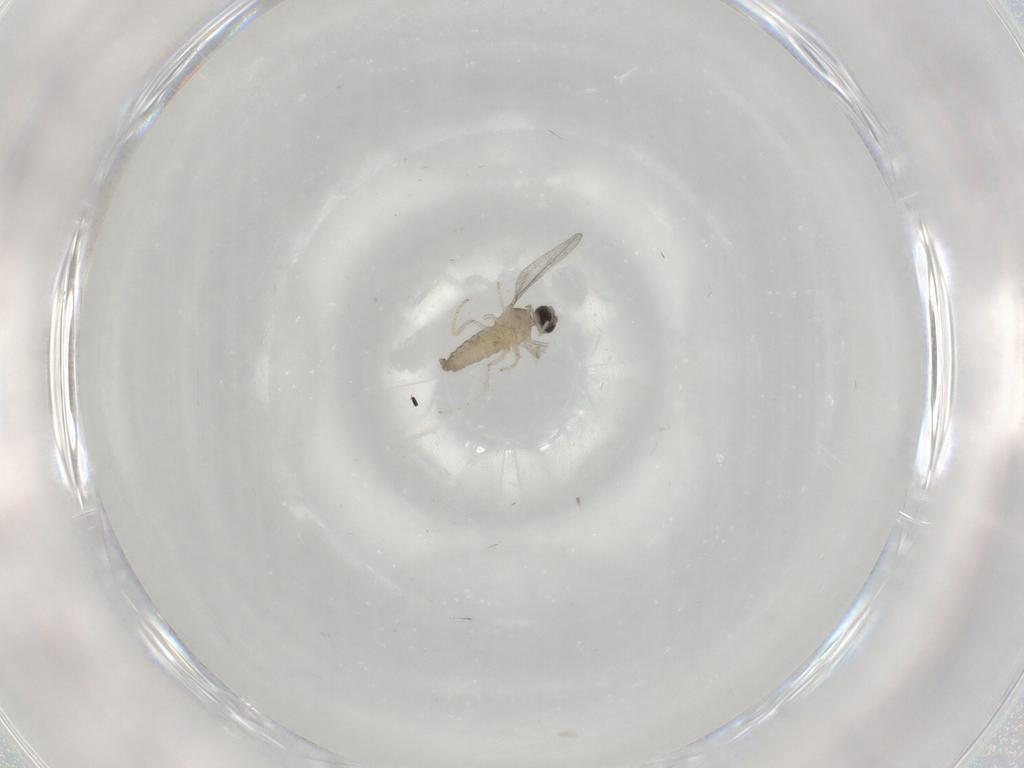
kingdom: Animalia
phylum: Arthropoda
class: Insecta
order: Diptera
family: Cecidomyiidae
